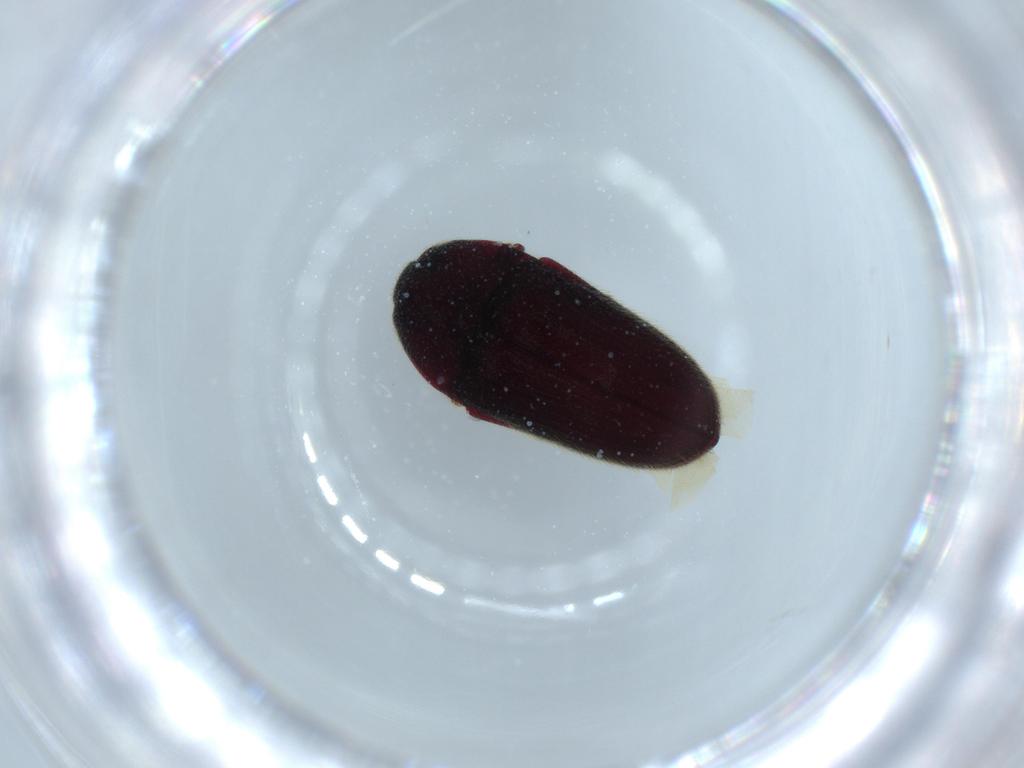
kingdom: Animalia
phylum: Arthropoda
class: Insecta
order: Coleoptera
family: Throscidae
